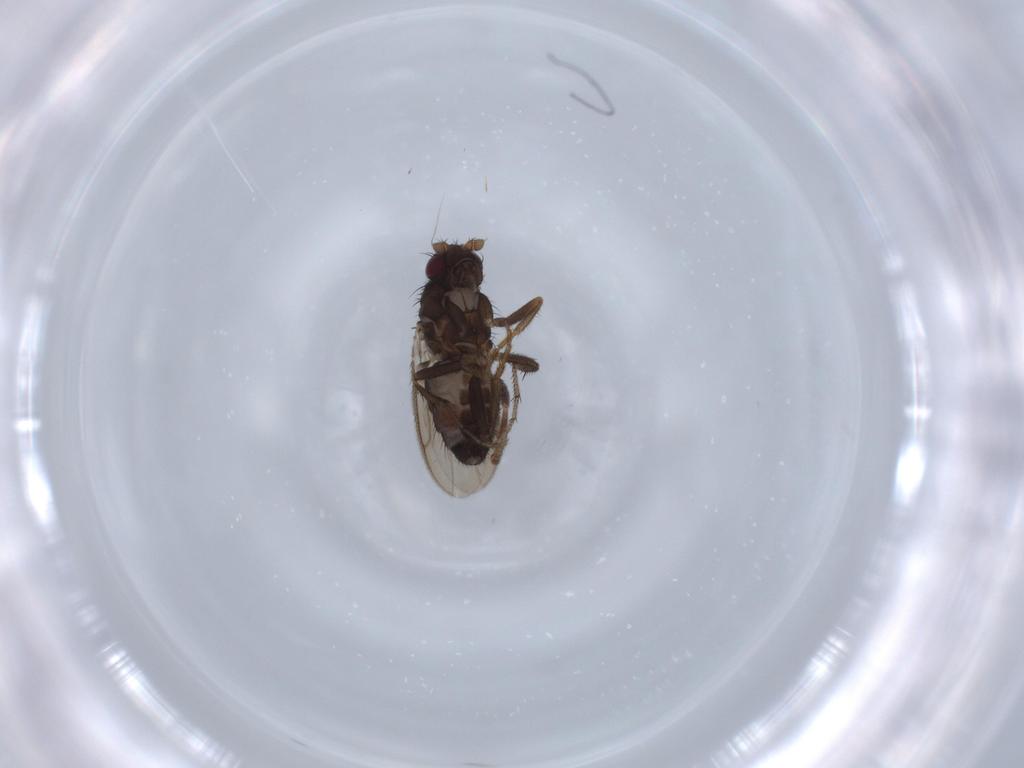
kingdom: Animalia
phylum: Arthropoda
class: Insecta
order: Diptera
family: Sphaeroceridae
